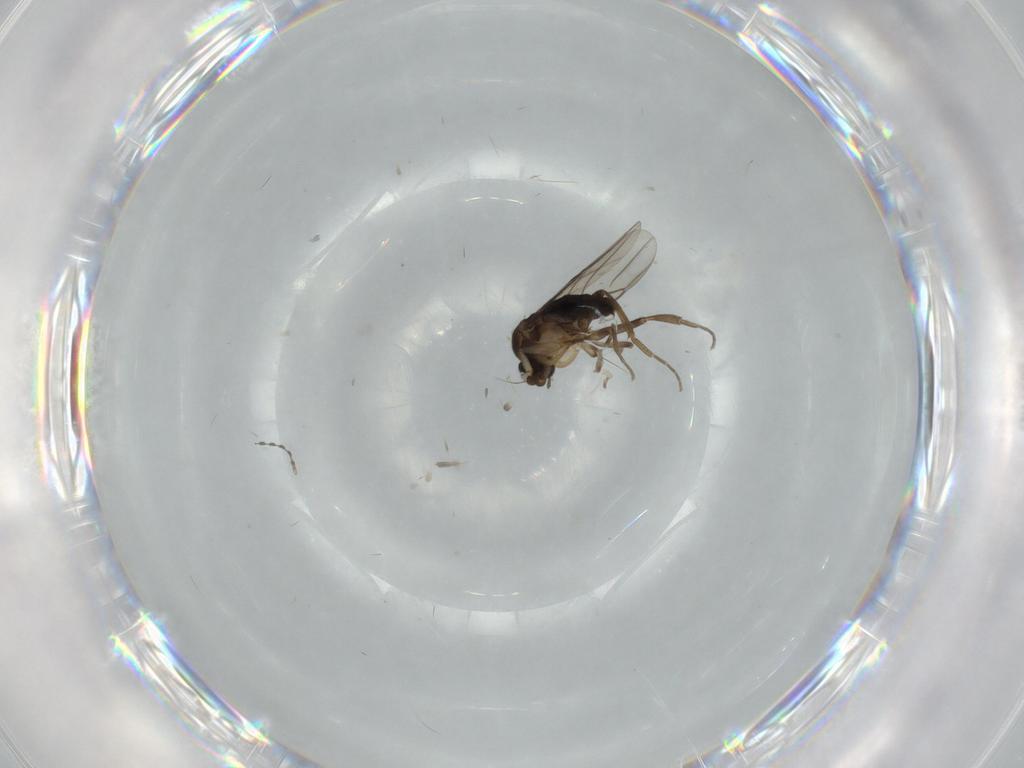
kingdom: Animalia
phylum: Arthropoda
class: Insecta
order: Diptera
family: Phoridae
